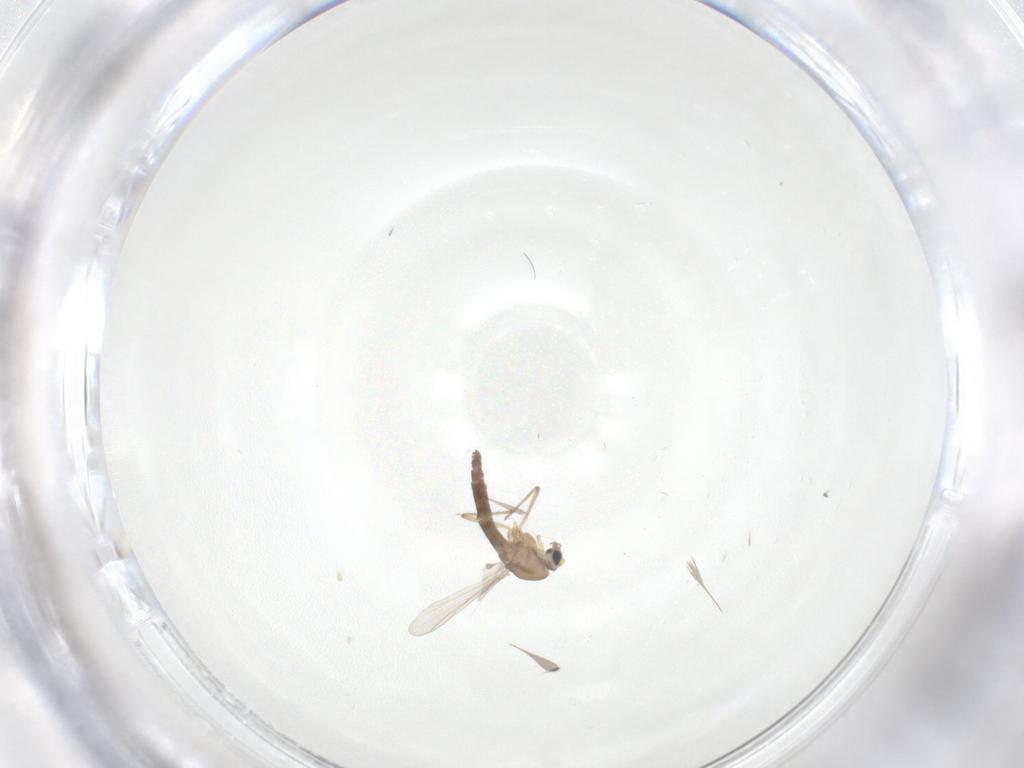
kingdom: Animalia
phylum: Arthropoda
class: Insecta
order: Diptera
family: Chironomidae
